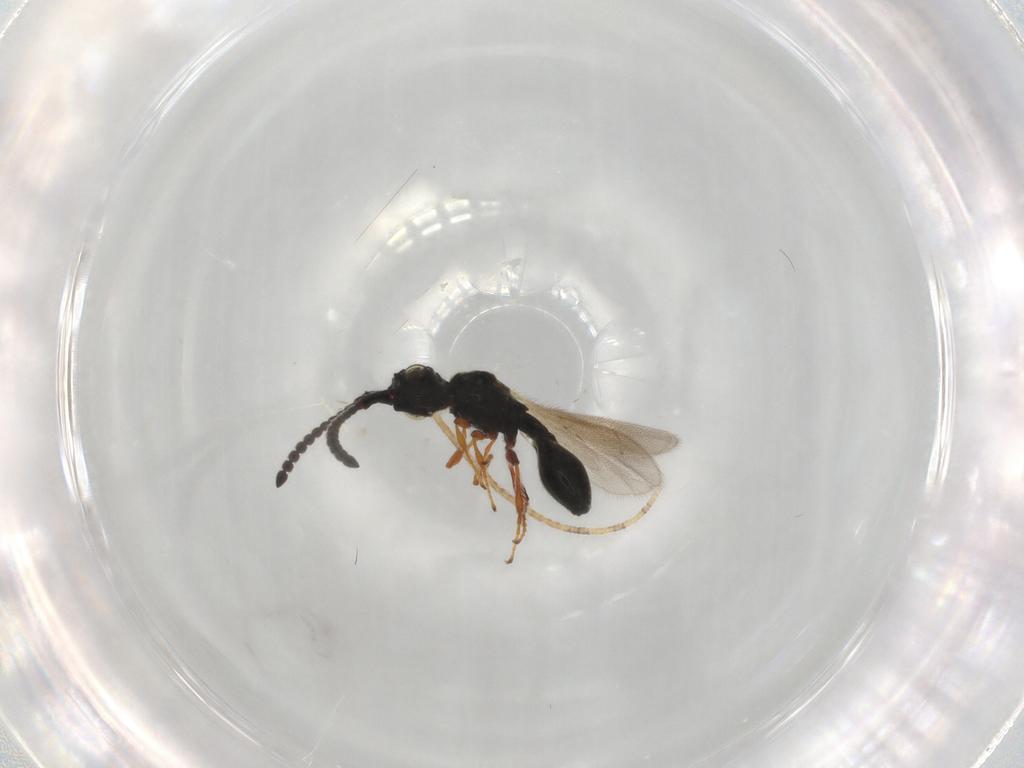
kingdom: Animalia
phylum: Arthropoda
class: Insecta
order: Hymenoptera
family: Diapriidae
